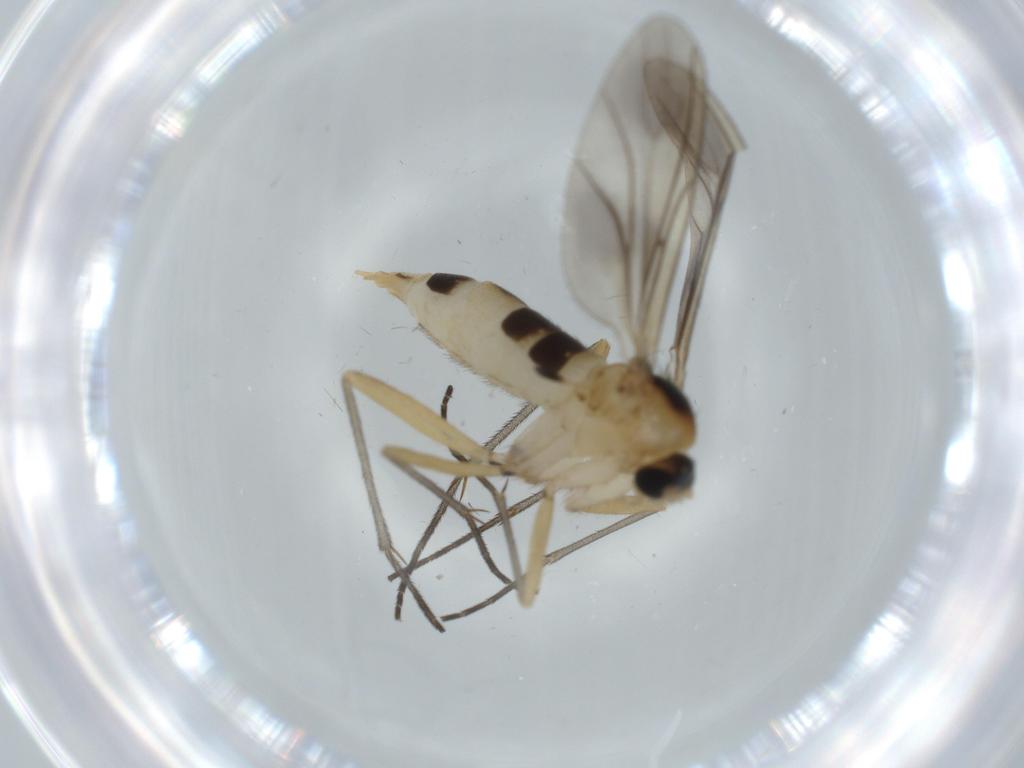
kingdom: Animalia
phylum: Arthropoda
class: Insecta
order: Diptera
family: Sciaridae
